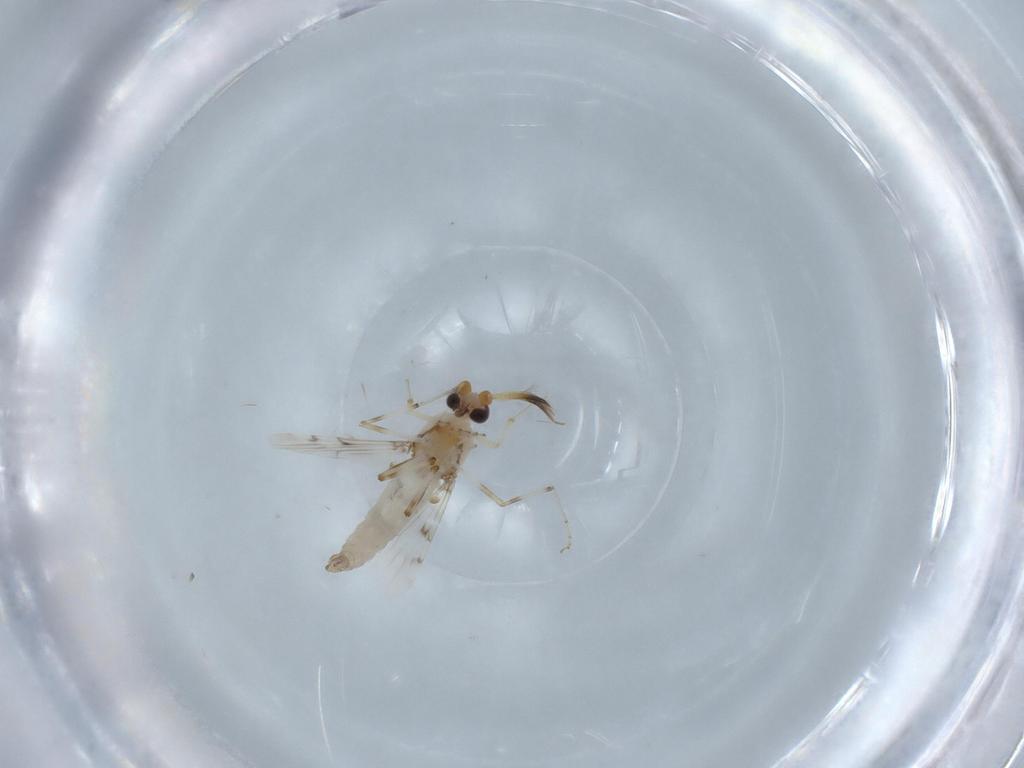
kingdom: Animalia
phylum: Arthropoda
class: Insecta
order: Diptera
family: Ceratopogonidae
